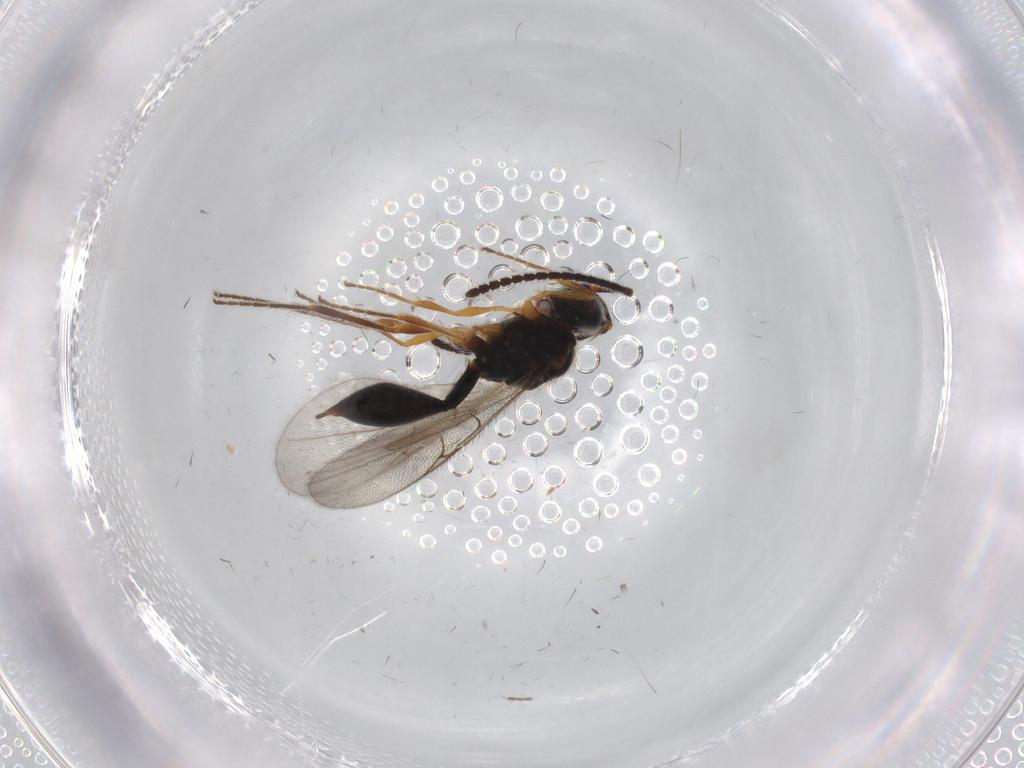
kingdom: Animalia
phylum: Arthropoda
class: Insecta
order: Hymenoptera
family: Diapriidae
